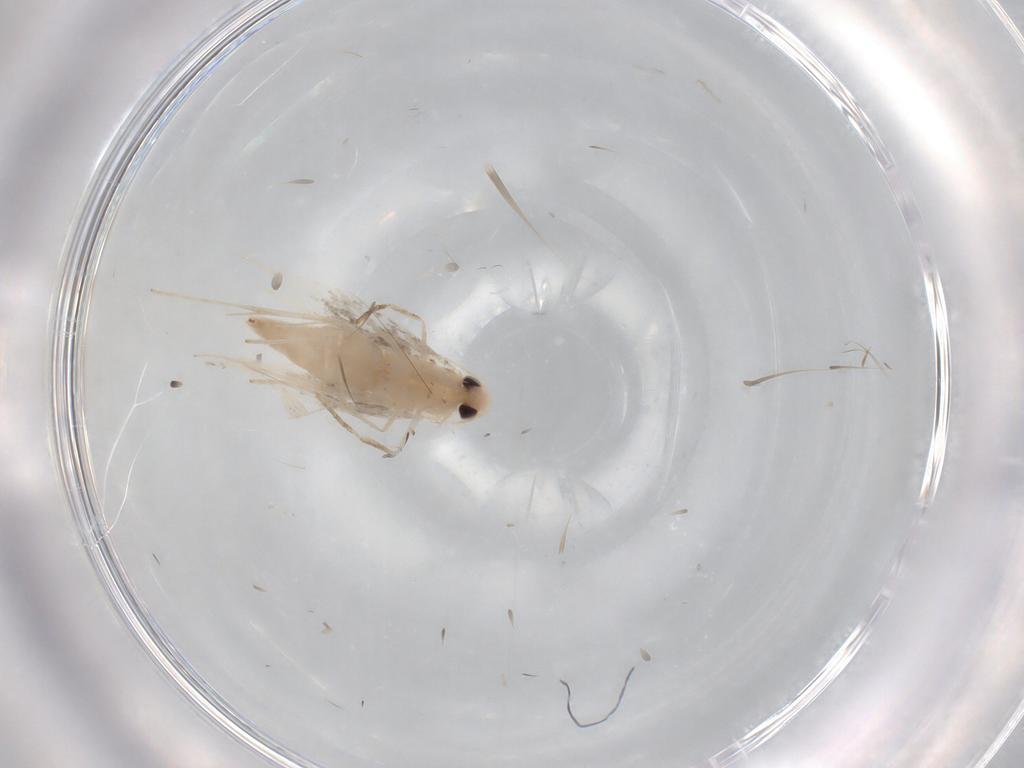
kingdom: Animalia
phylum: Arthropoda
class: Insecta
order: Lepidoptera
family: Gracillariidae
